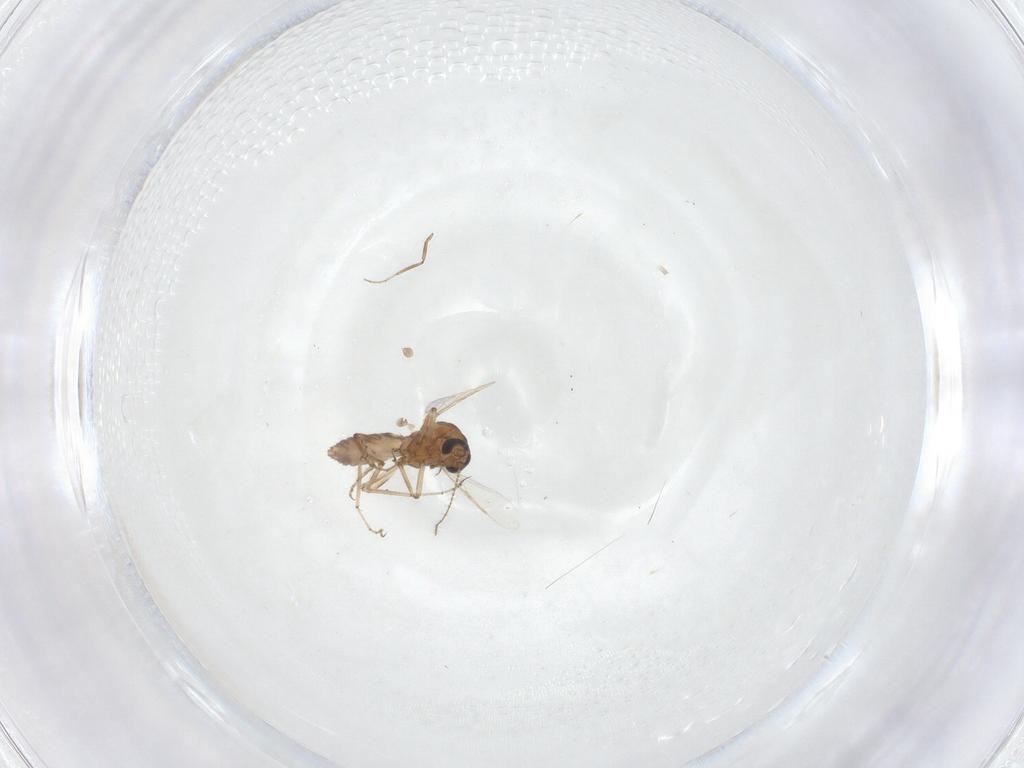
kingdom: Animalia
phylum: Arthropoda
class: Insecta
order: Diptera
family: Ceratopogonidae
